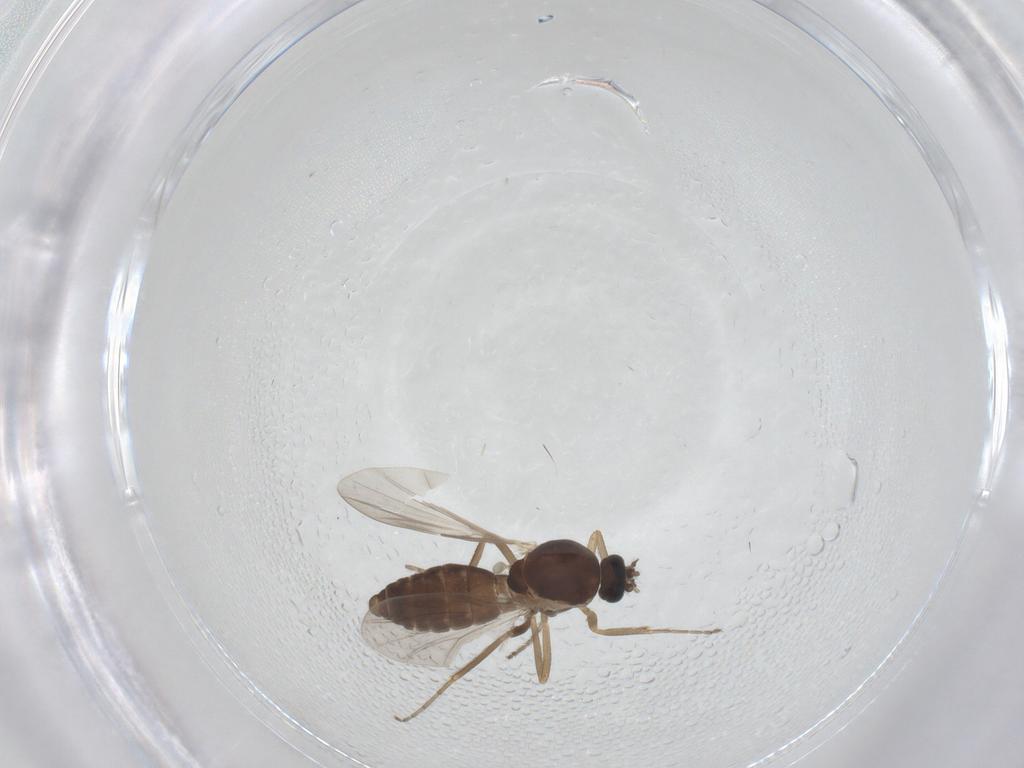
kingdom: Animalia
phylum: Arthropoda
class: Insecta
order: Diptera
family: Ceratopogonidae
